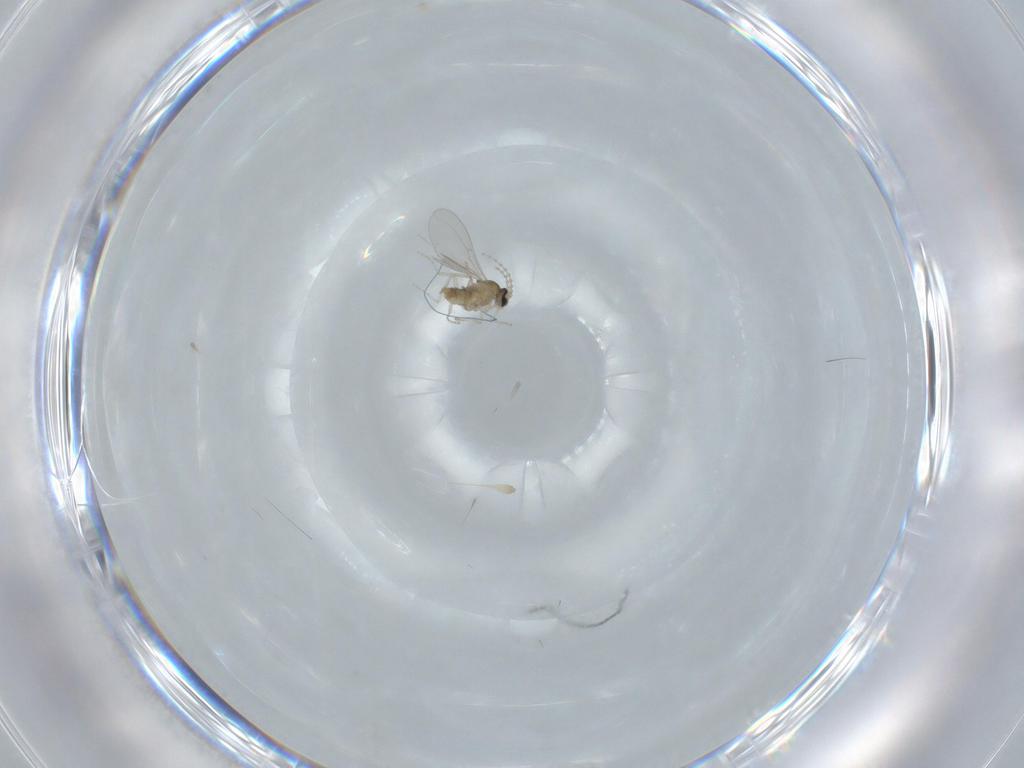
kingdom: Animalia
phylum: Arthropoda
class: Insecta
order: Diptera
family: Cecidomyiidae
